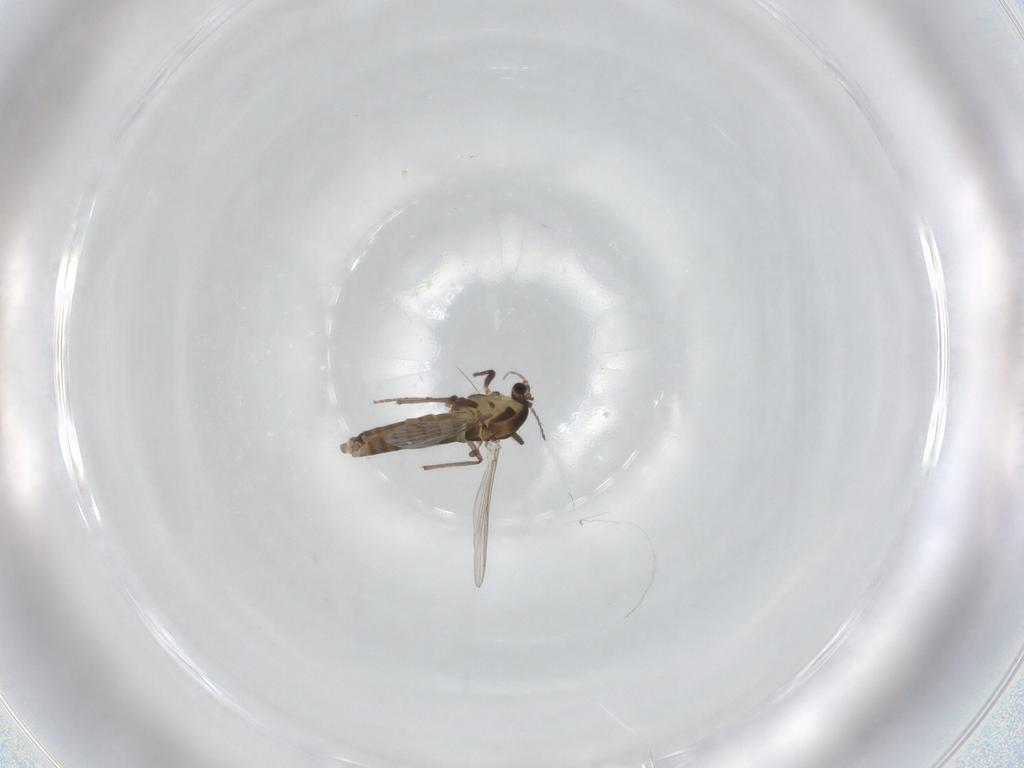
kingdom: Animalia
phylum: Arthropoda
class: Insecta
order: Diptera
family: Chironomidae
